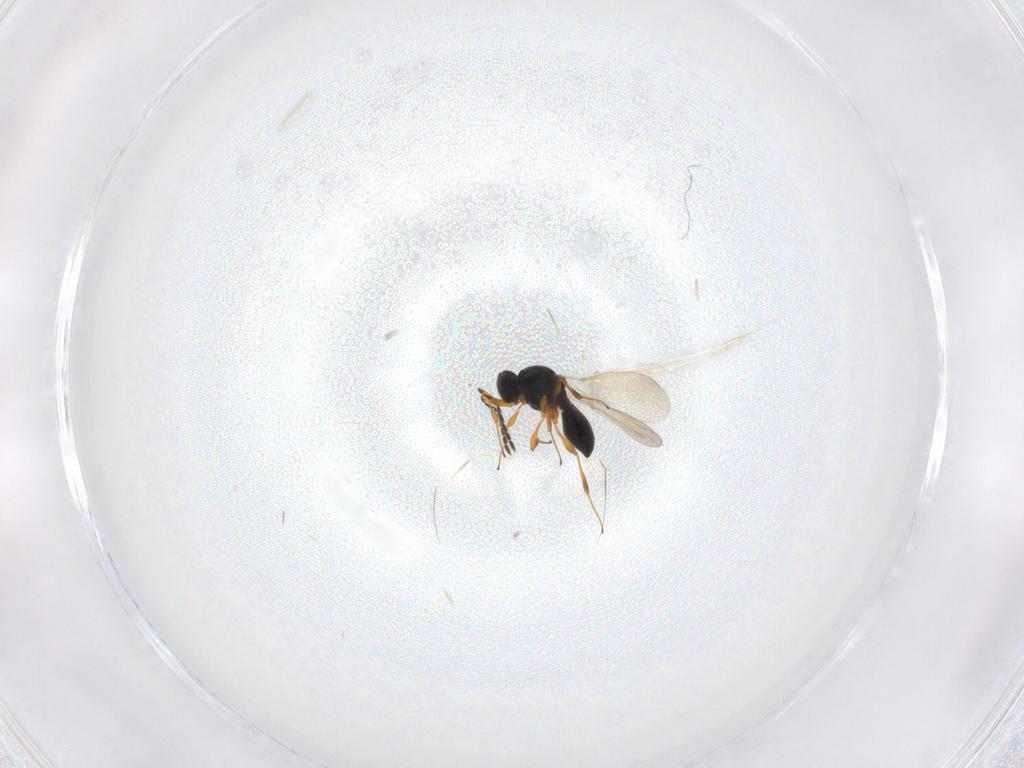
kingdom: Animalia
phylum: Arthropoda
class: Insecta
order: Hymenoptera
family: Platygastridae
